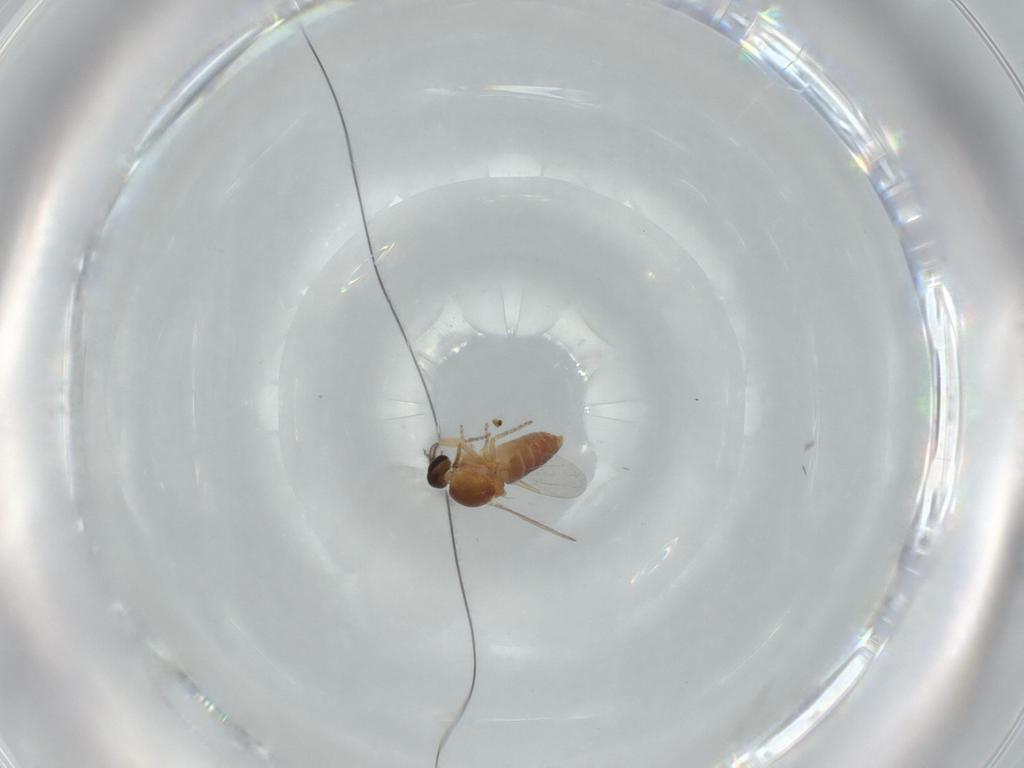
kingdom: Animalia
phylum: Arthropoda
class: Insecta
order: Diptera
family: Ceratopogonidae
